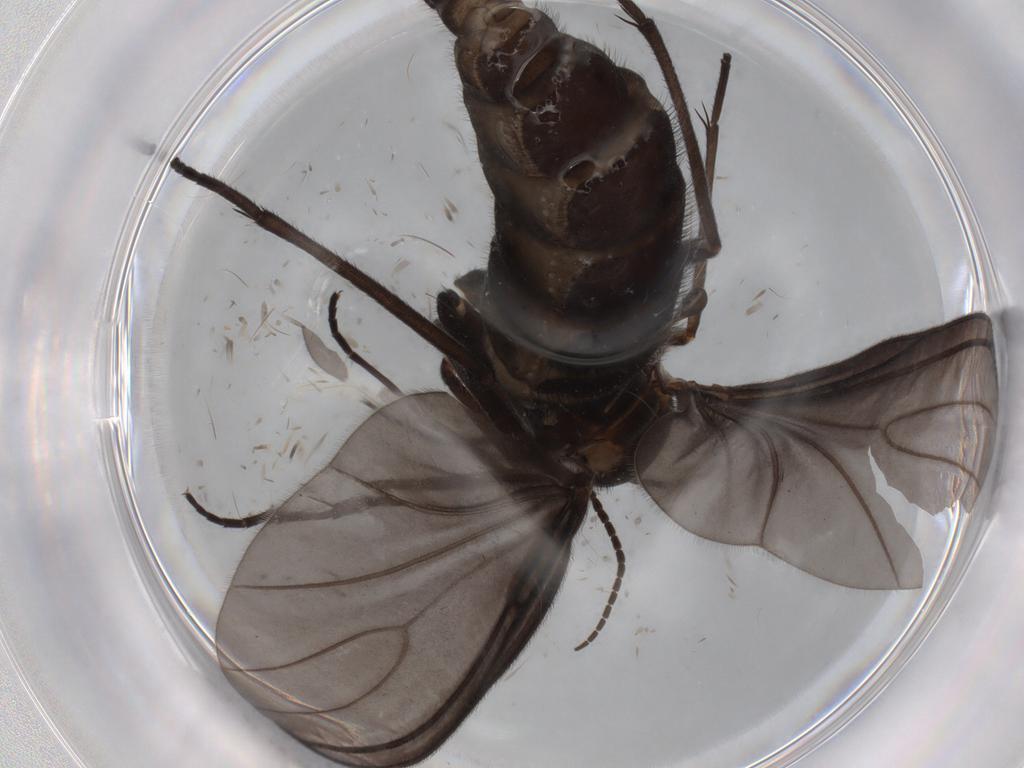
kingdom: Animalia
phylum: Arthropoda
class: Insecta
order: Diptera
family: Sciaridae
